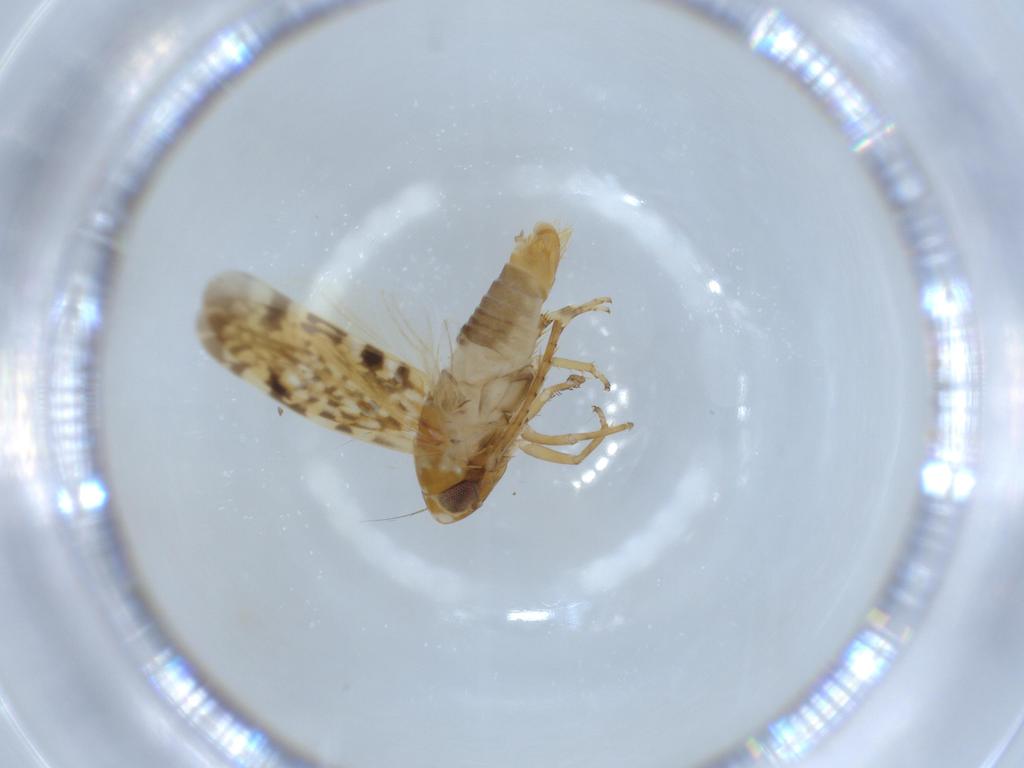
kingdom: Animalia
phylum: Arthropoda
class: Insecta
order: Hemiptera
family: Cicadellidae
